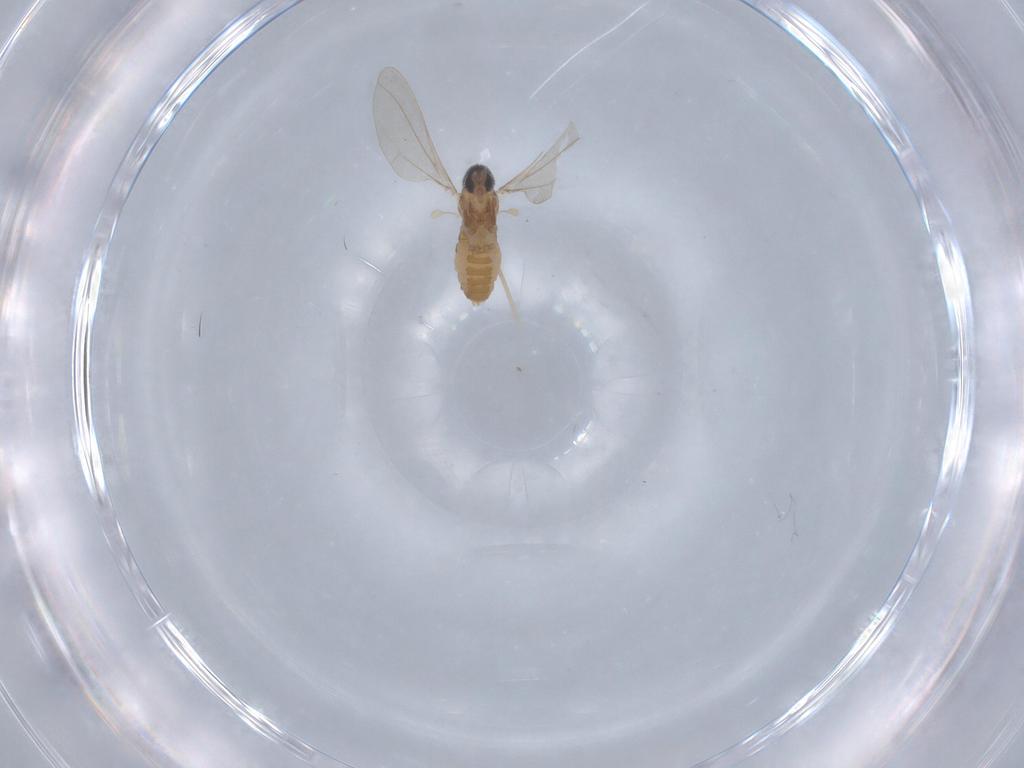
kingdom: Animalia
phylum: Arthropoda
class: Insecta
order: Diptera
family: Cecidomyiidae
